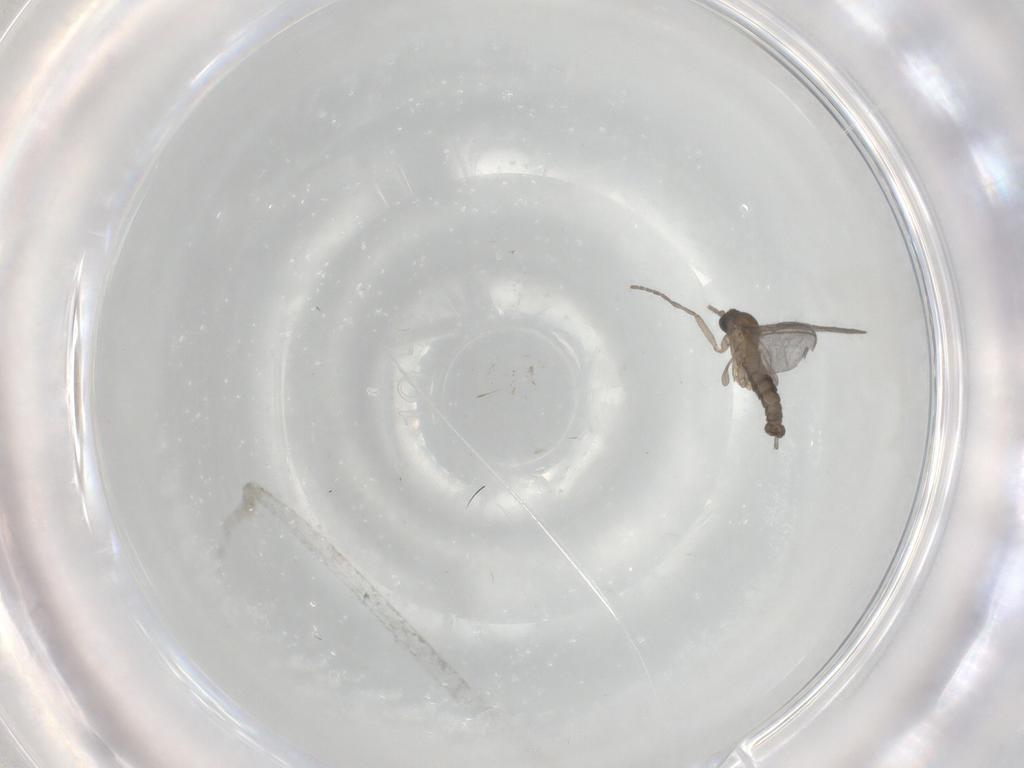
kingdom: Animalia
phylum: Arthropoda
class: Insecta
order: Diptera
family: Sciaridae
